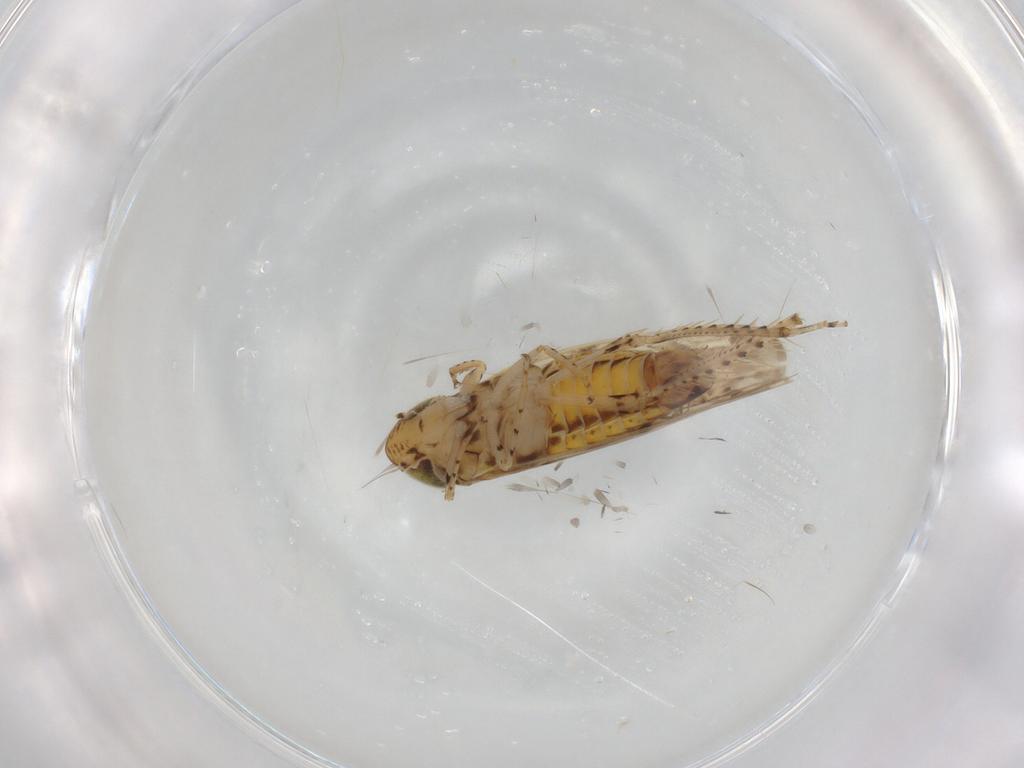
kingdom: Animalia
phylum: Arthropoda
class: Insecta
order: Hemiptera
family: Cicadellidae
